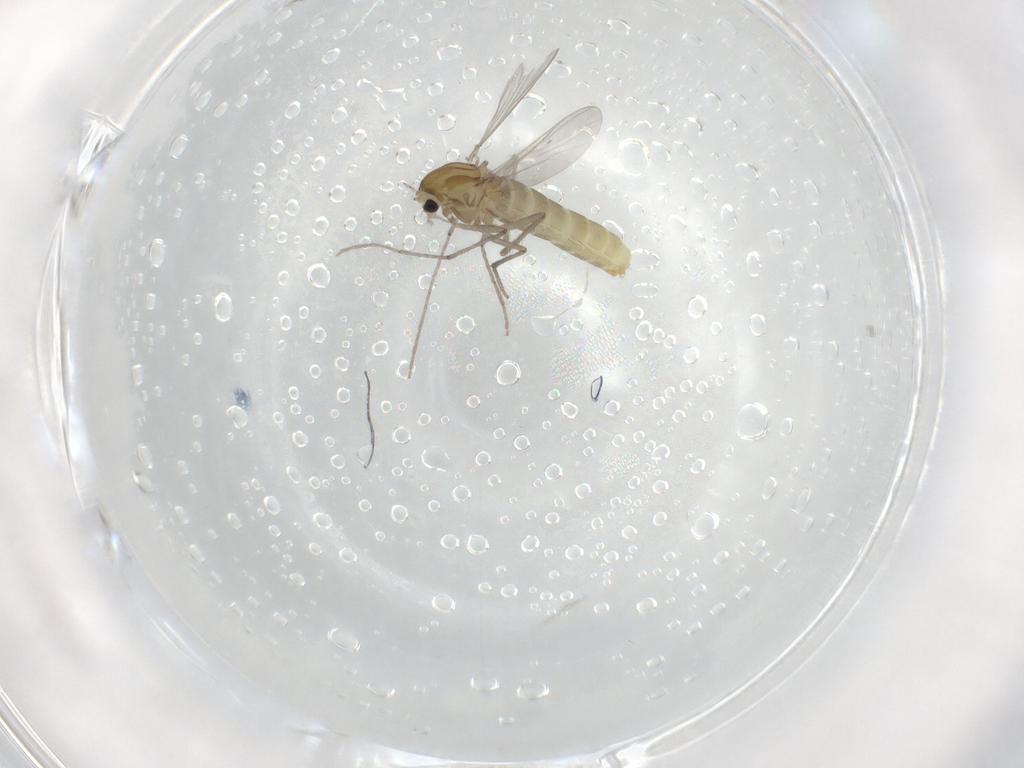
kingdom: Animalia
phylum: Arthropoda
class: Insecta
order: Diptera
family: Chironomidae
